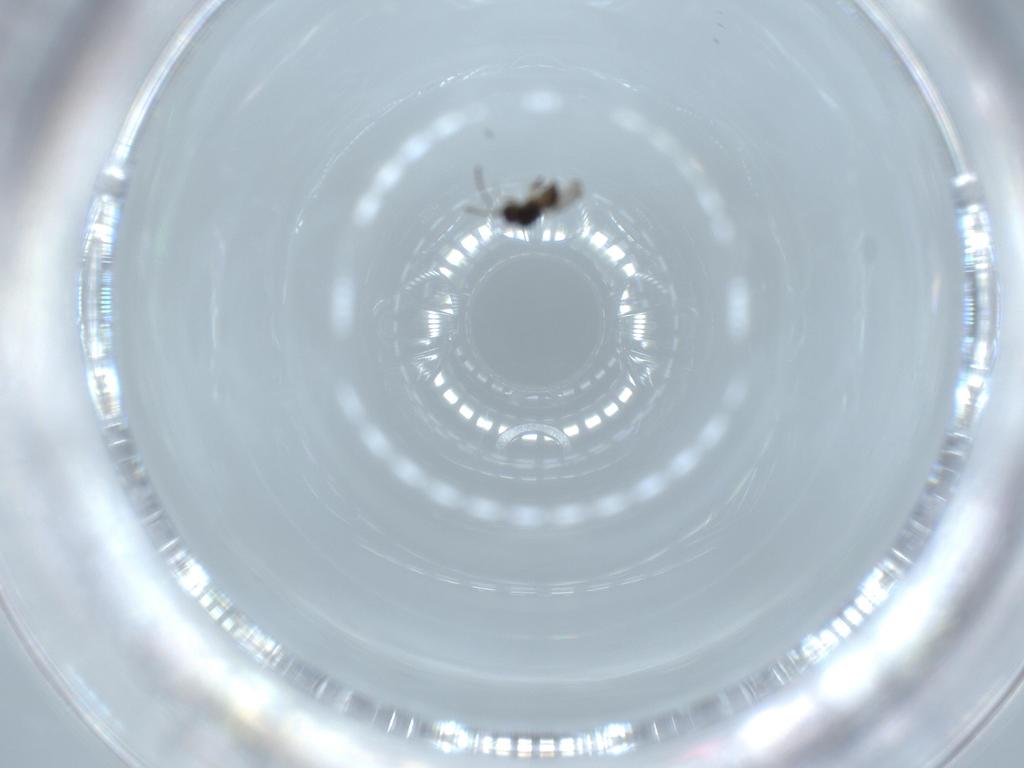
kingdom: Animalia
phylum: Arthropoda
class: Insecta
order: Hymenoptera
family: Ceraphronidae
